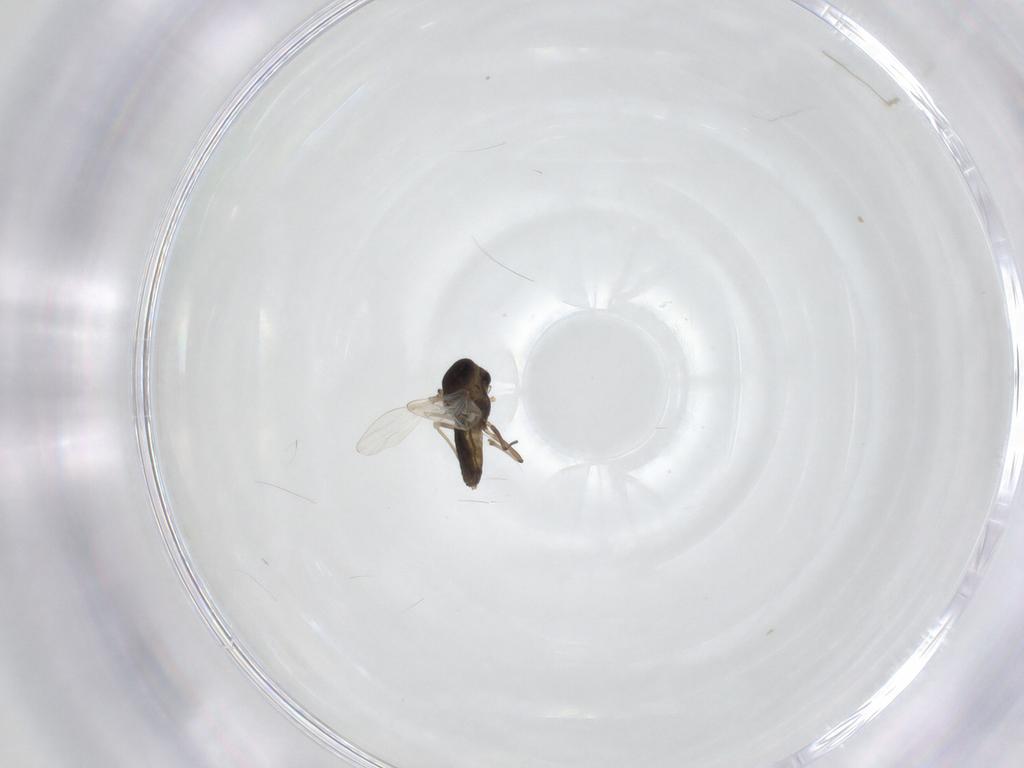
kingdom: Animalia
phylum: Arthropoda
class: Insecta
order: Diptera
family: Chironomidae
